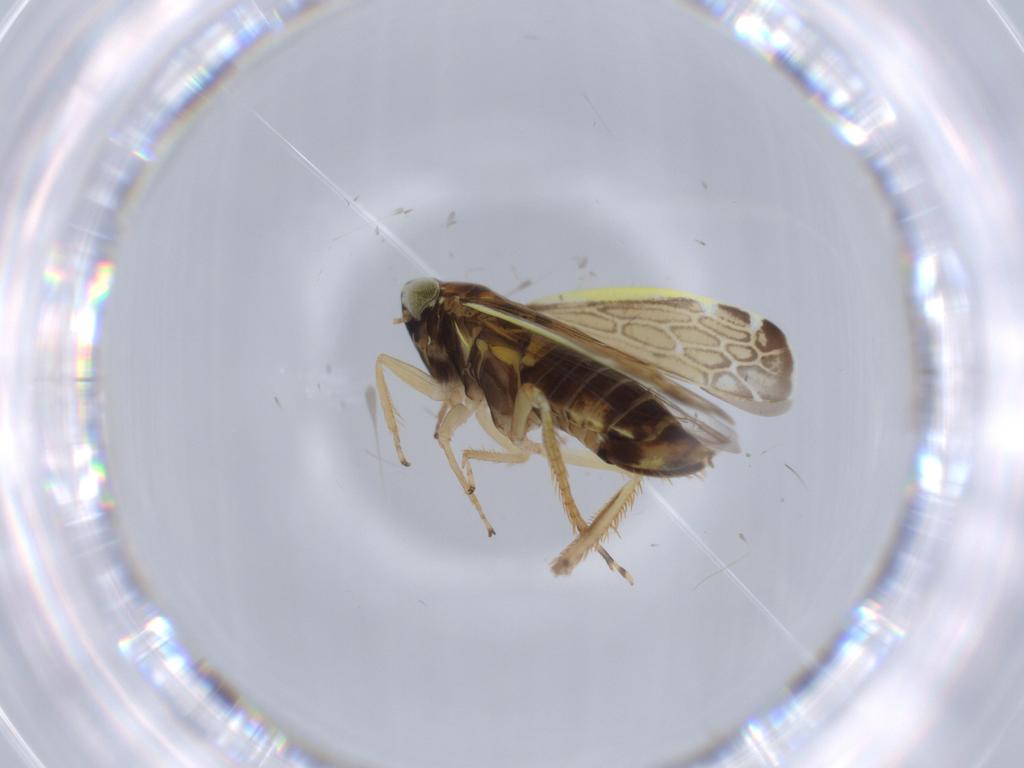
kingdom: Animalia
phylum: Arthropoda
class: Insecta
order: Hemiptera
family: Cicadellidae
